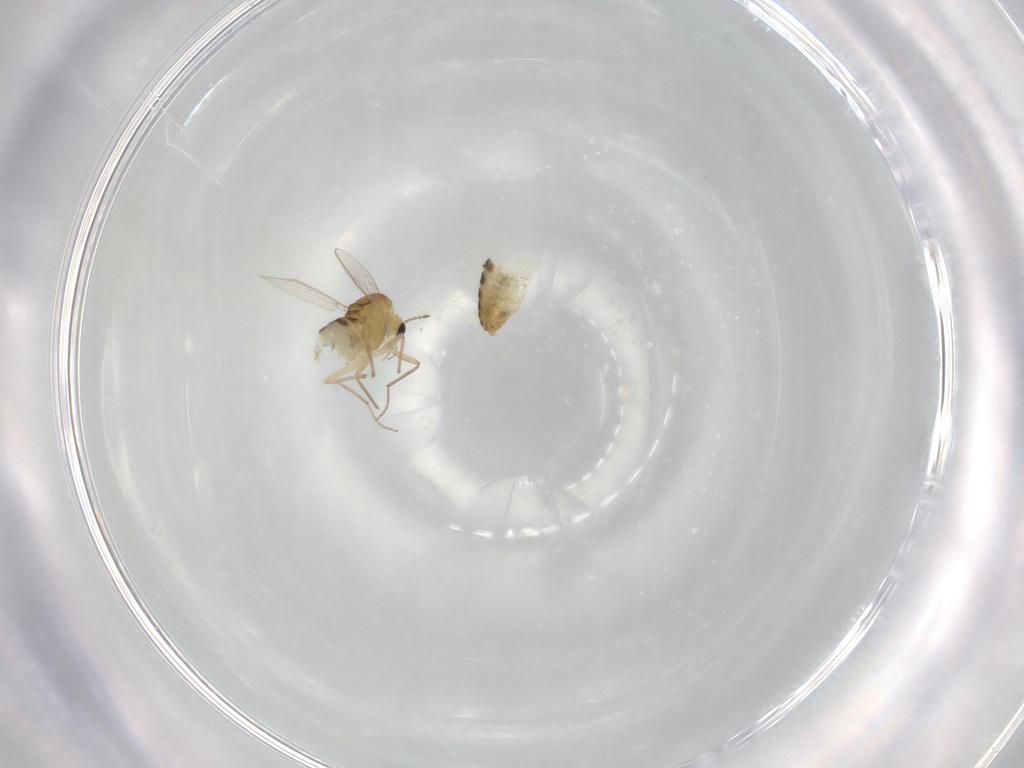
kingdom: Animalia
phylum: Arthropoda
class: Insecta
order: Diptera
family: Chironomidae
